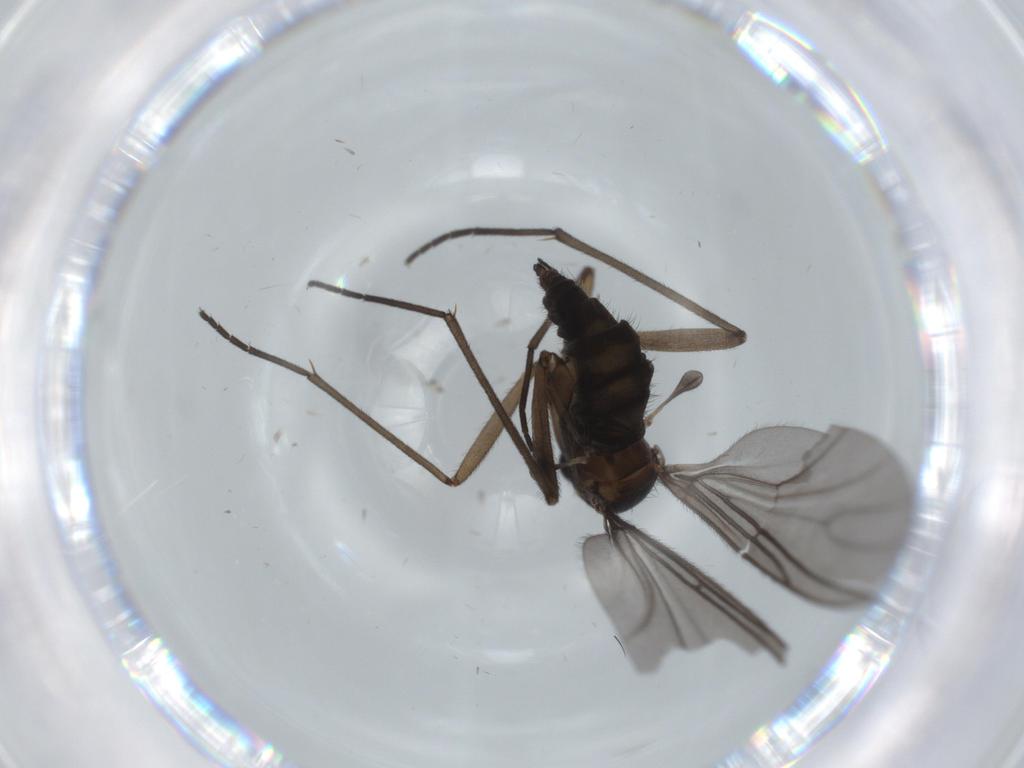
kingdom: Animalia
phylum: Arthropoda
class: Insecta
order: Diptera
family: Sciaridae
